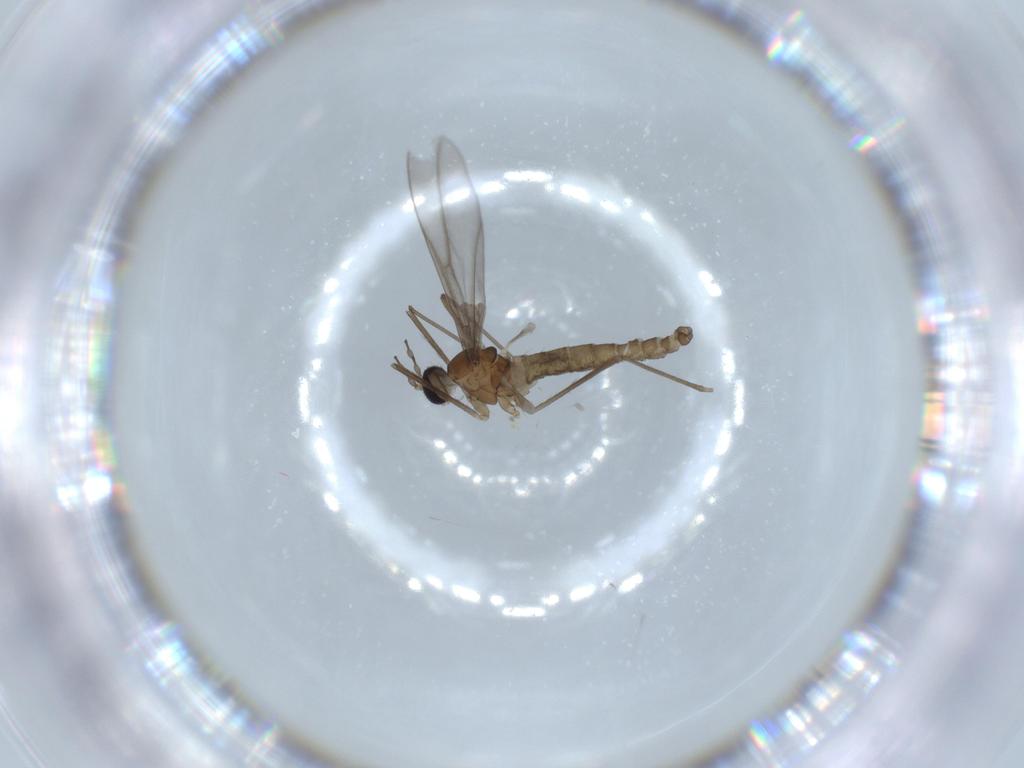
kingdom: Animalia
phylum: Arthropoda
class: Insecta
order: Diptera
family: Cecidomyiidae
